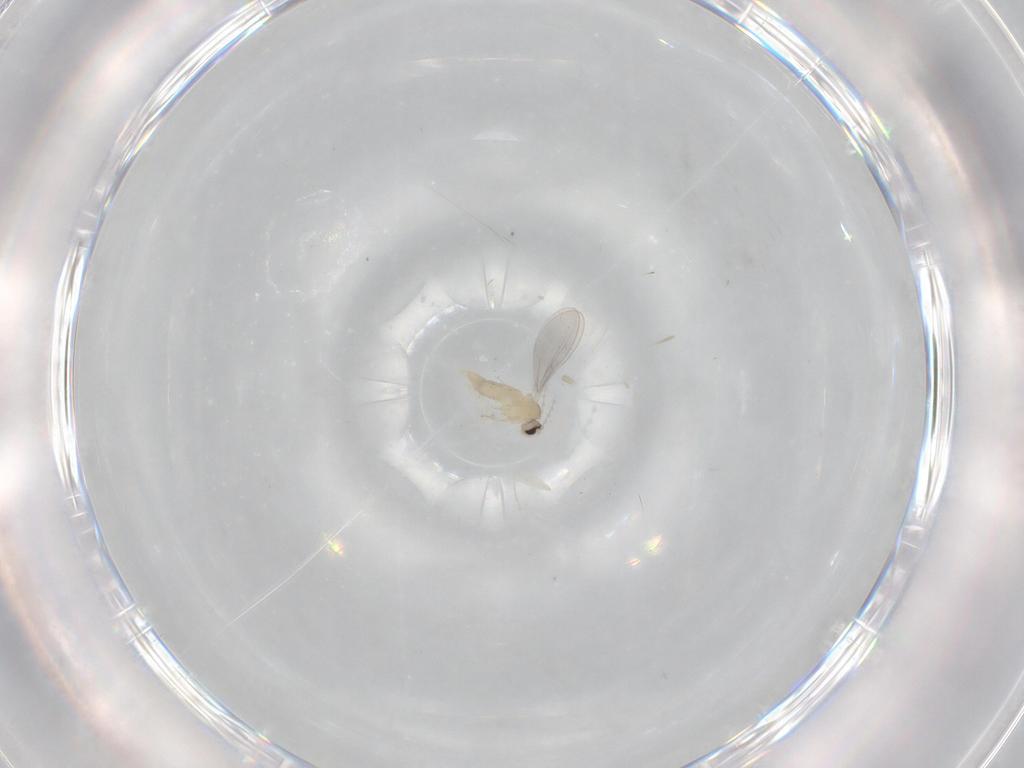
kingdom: Animalia
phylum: Arthropoda
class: Insecta
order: Diptera
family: Cecidomyiidae
